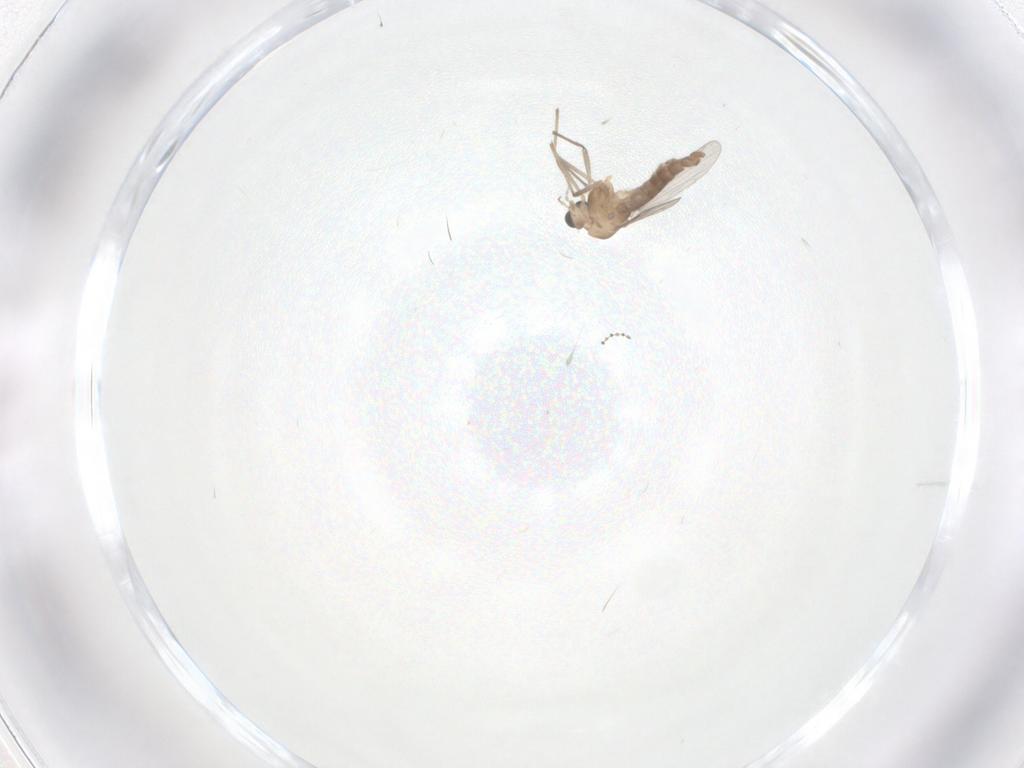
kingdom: Animalia
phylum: Arthropoda
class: Insecta
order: Diptera
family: Cecidomyiidae
